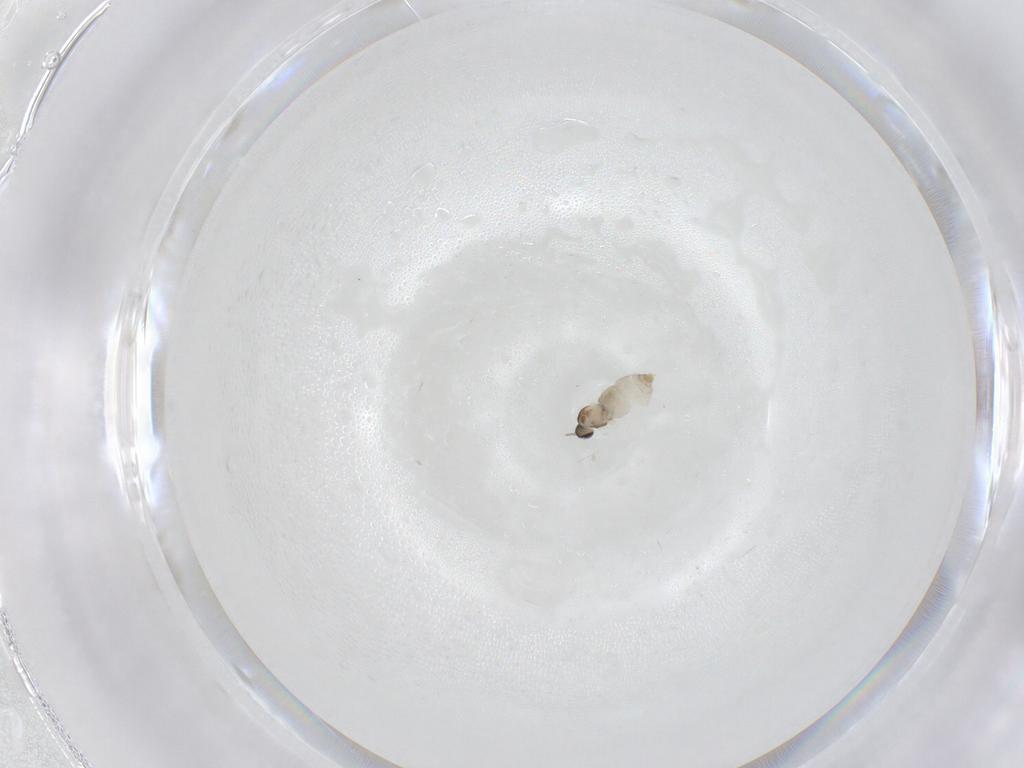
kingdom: Animalia
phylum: Arthropoda
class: Insecta
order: Diptera
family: Cecidomyiidae
